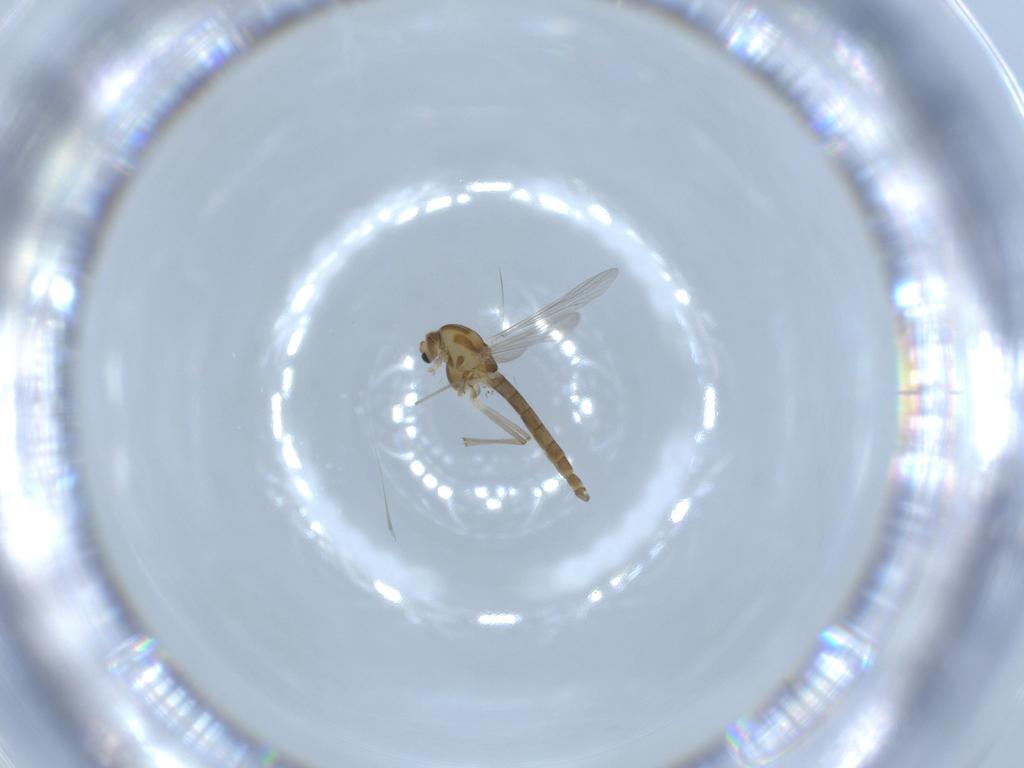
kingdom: Animalia
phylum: Arthropoda
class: Insecta
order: Diptera
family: Chironomidae
